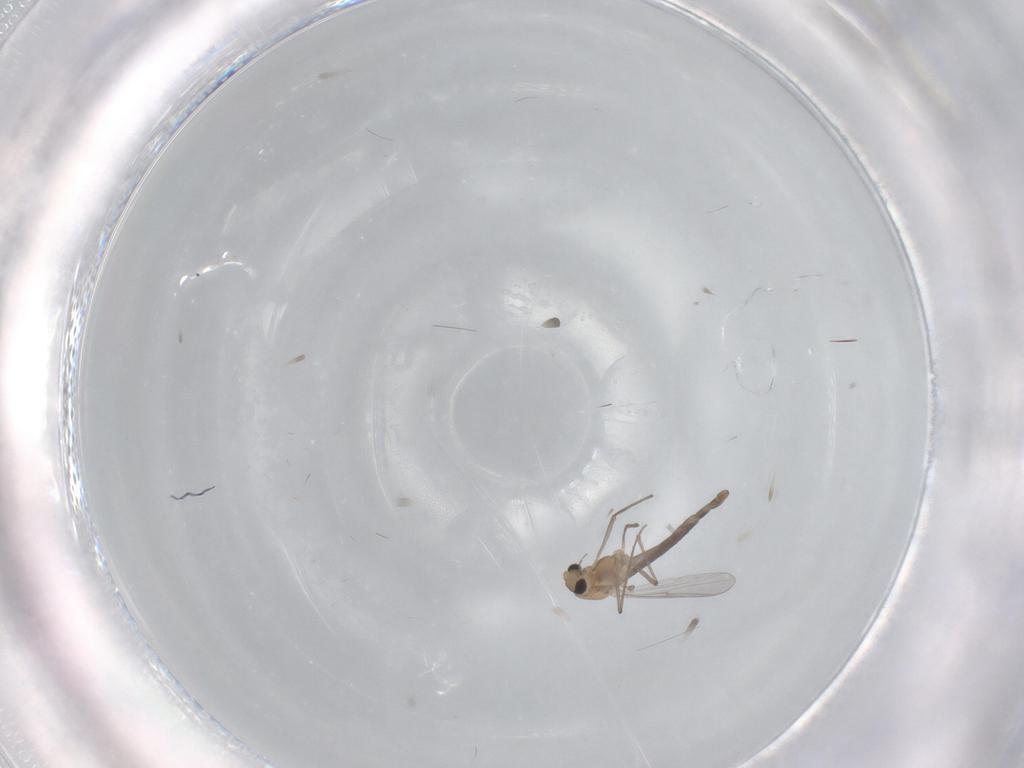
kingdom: Animalia
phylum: Arthropoda
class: Insecta
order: Diptera
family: Chironomidae
